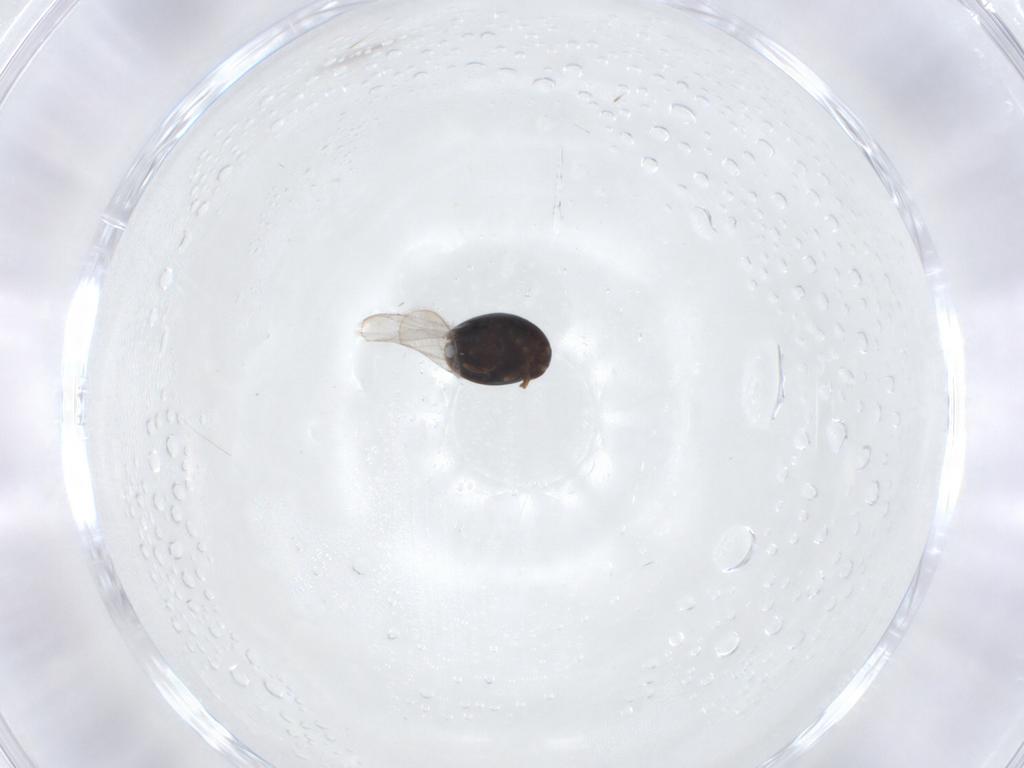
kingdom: Animalia
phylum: Arthropoda
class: Insecta
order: Coleoptera
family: Corylophidae
